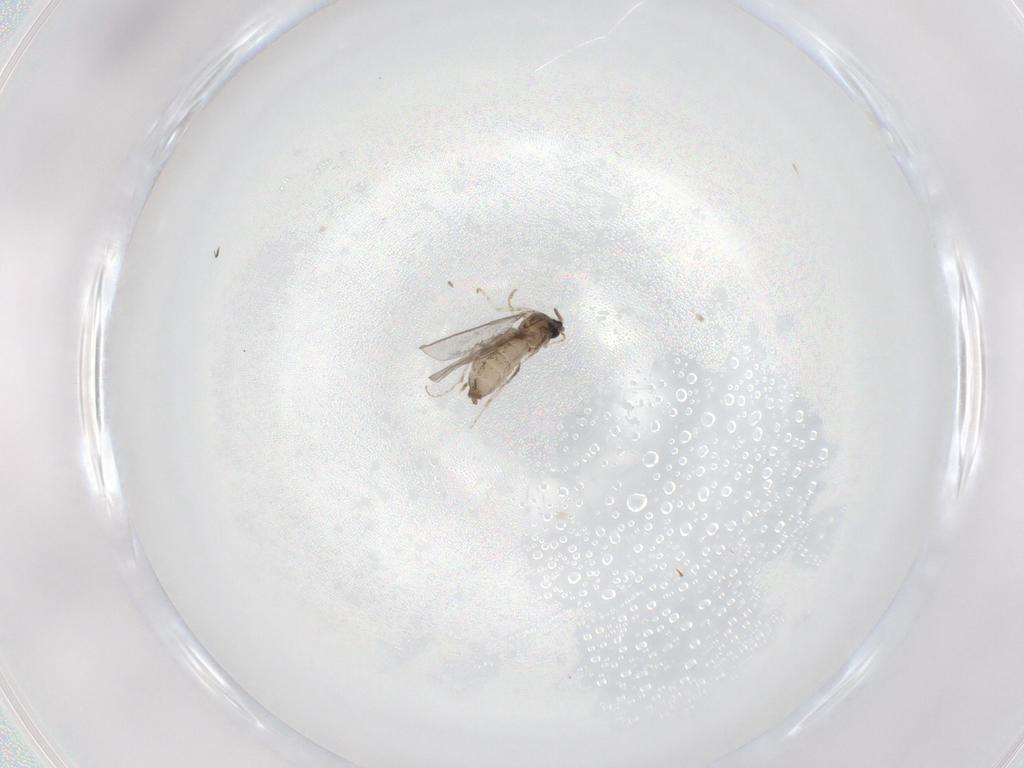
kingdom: Animalia
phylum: Arthropoda
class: Insecta
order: Diptera
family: Cecidomyiidae
